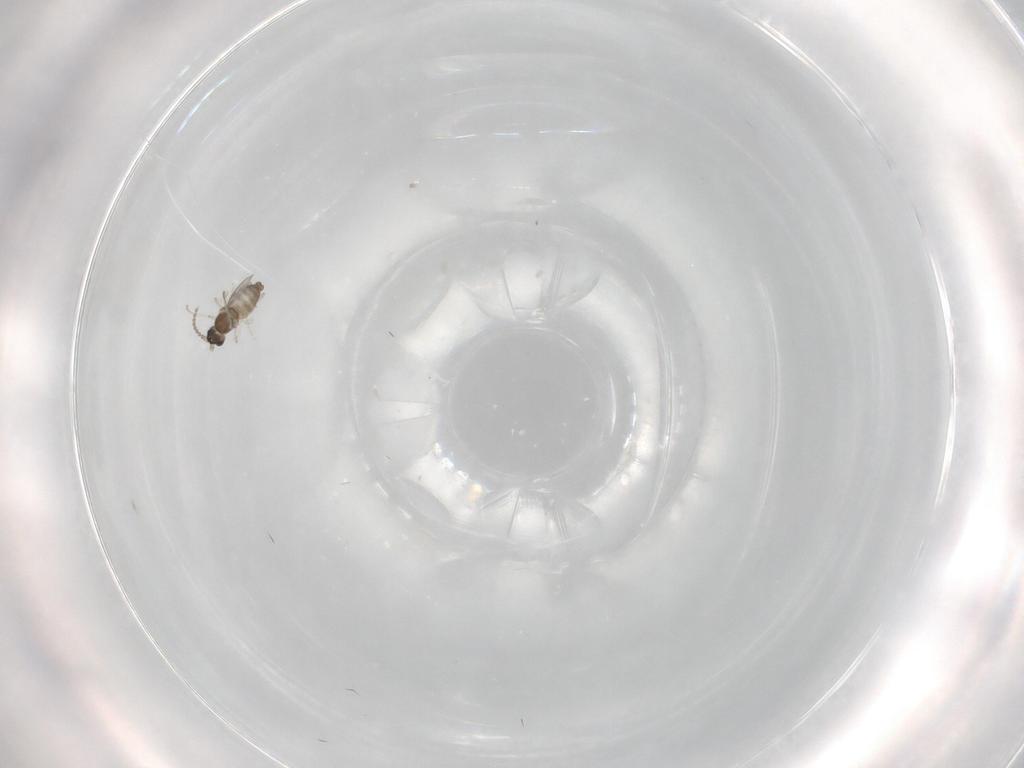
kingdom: Animalia
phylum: Arthropoda
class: Insecta
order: Diptera
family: Cecidomyiidae
